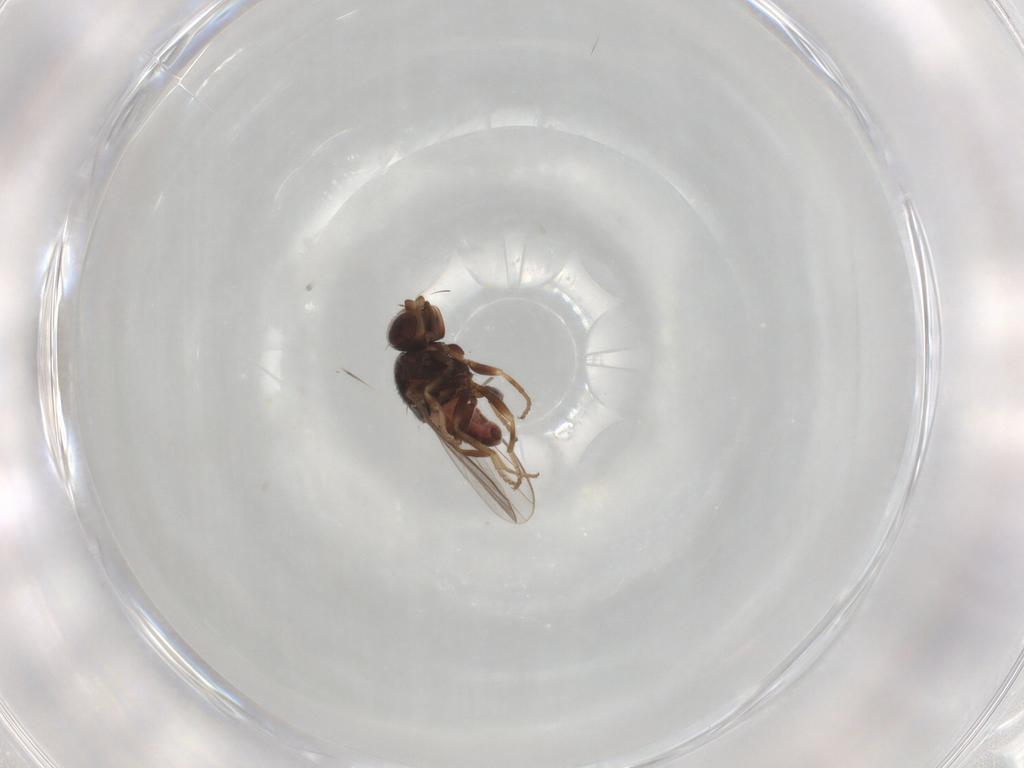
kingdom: Animalia
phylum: Arthropoda
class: Insecta
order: Diptera
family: Chloropidae
